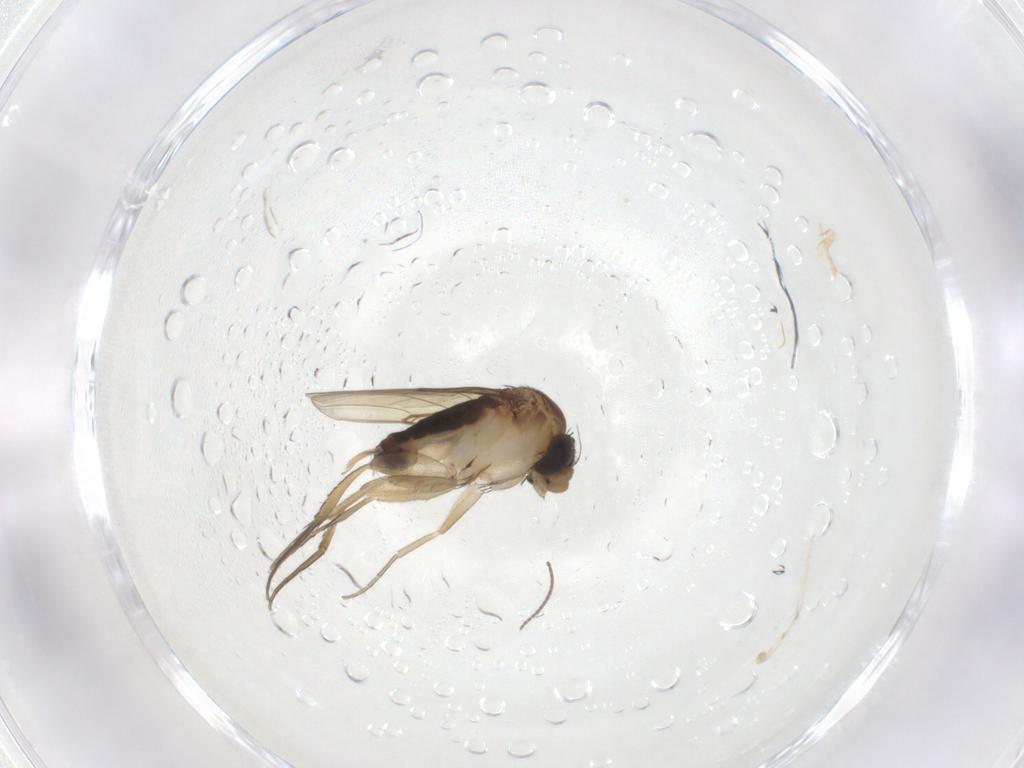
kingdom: Animalia
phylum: Arthropoda
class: Insecta
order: Diptera
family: Phoridae
